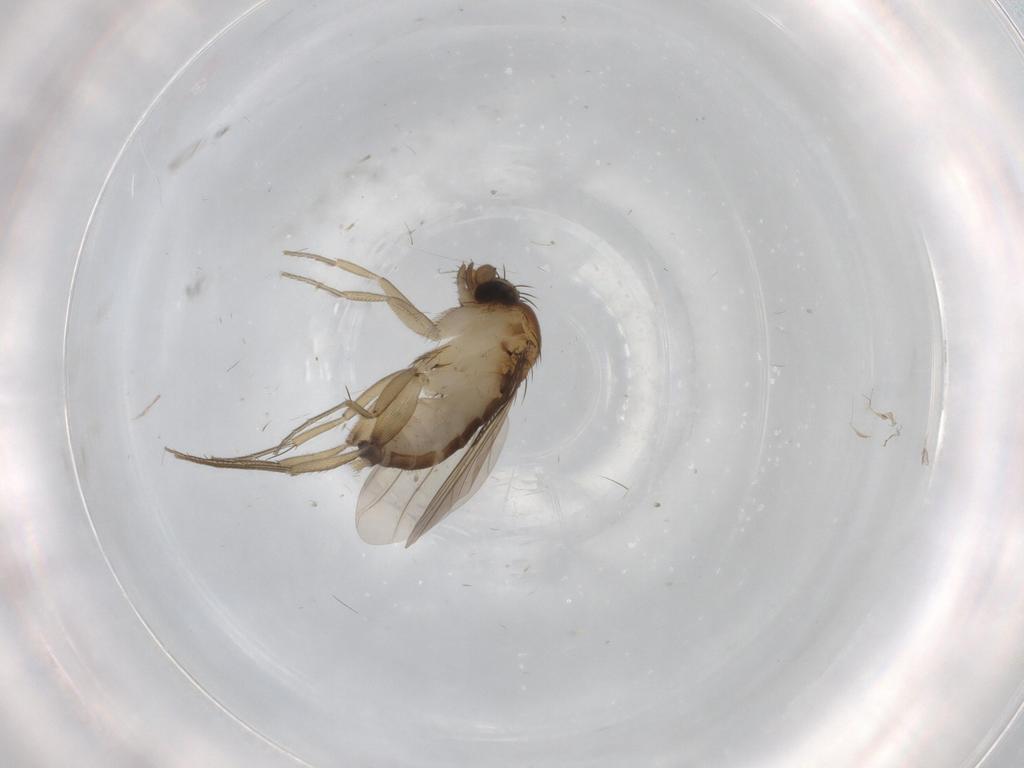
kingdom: Animalia
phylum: Arthropoda
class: Insecta
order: Diptera
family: Phoridae
